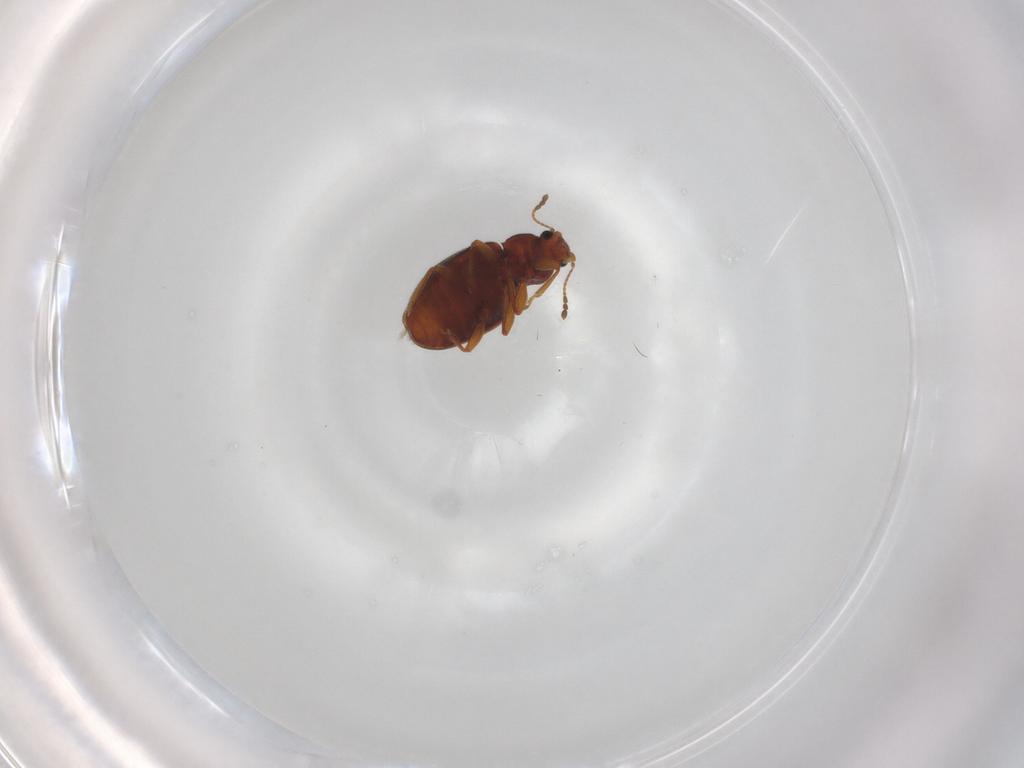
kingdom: Animalia
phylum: Arthropoda
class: Insecta
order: Coleoptera
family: Latridiidae
